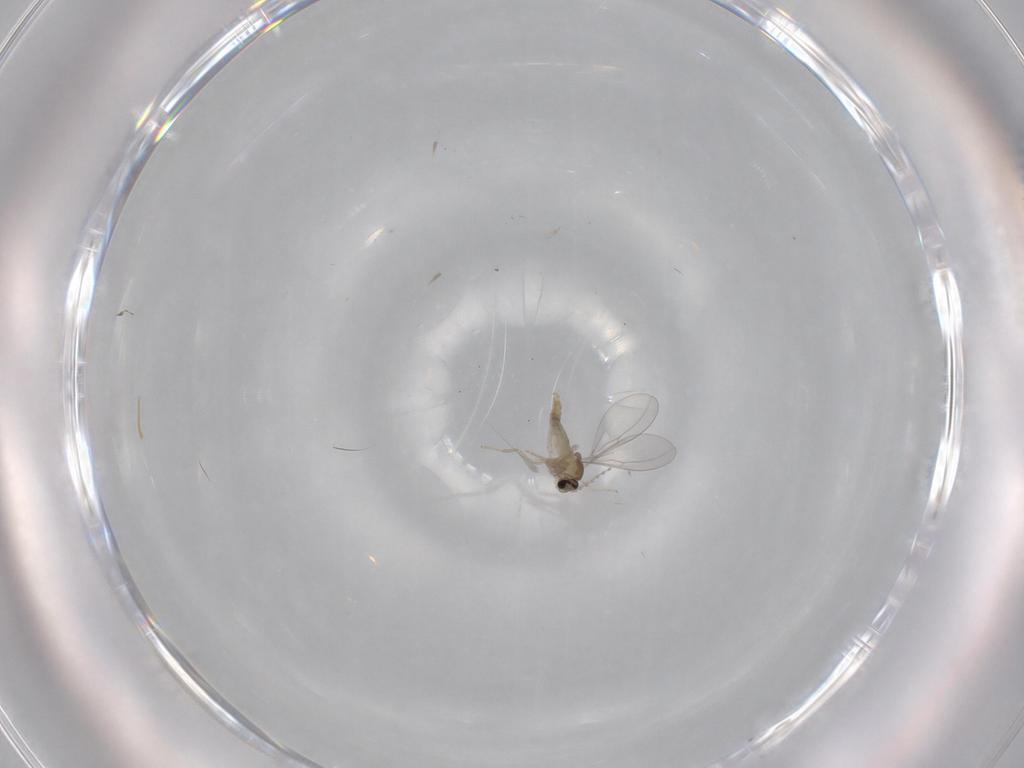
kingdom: Animalia
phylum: Arthropoda
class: Insecta
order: Diptera
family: Cecidomyiidae
